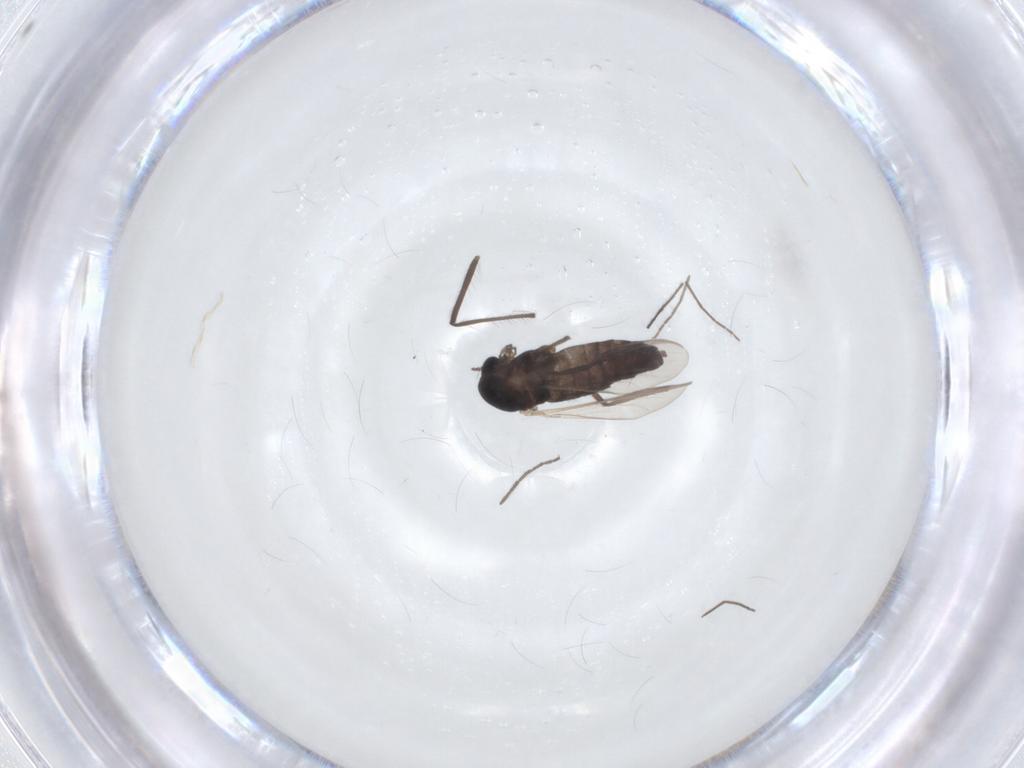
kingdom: Animalia
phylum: Arthropoda
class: Insecta
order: Diptera
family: Chironomidae
